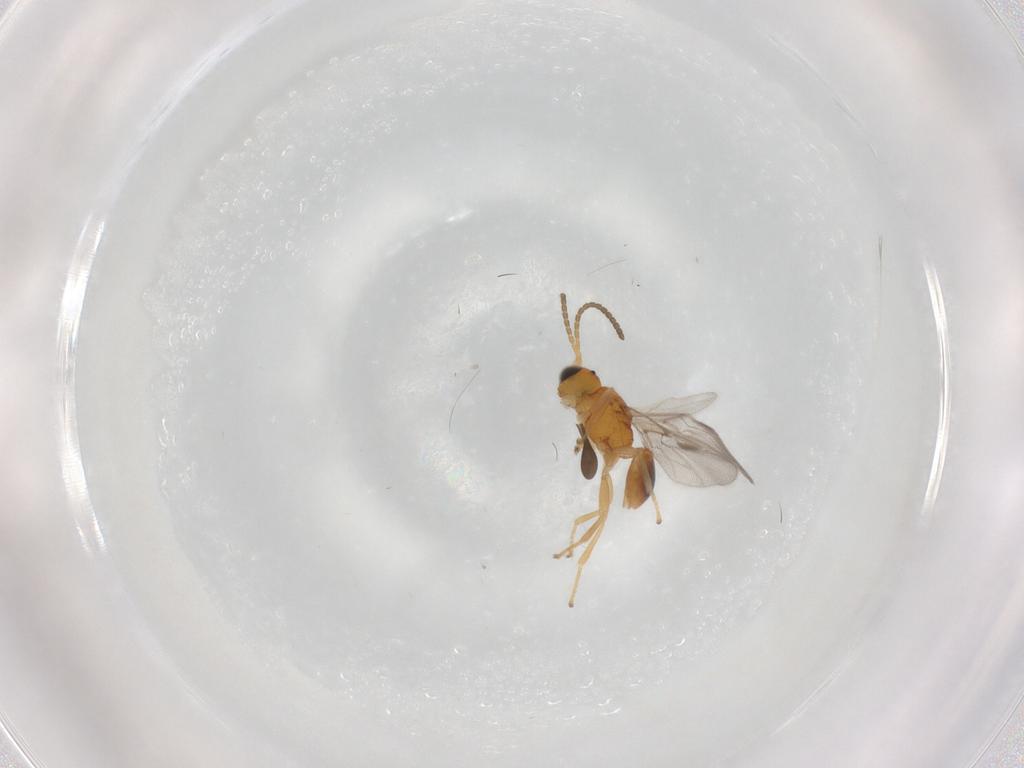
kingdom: Animalia
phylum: Arthropoda
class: Insecta
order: Hymenoptera
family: Braconidae
